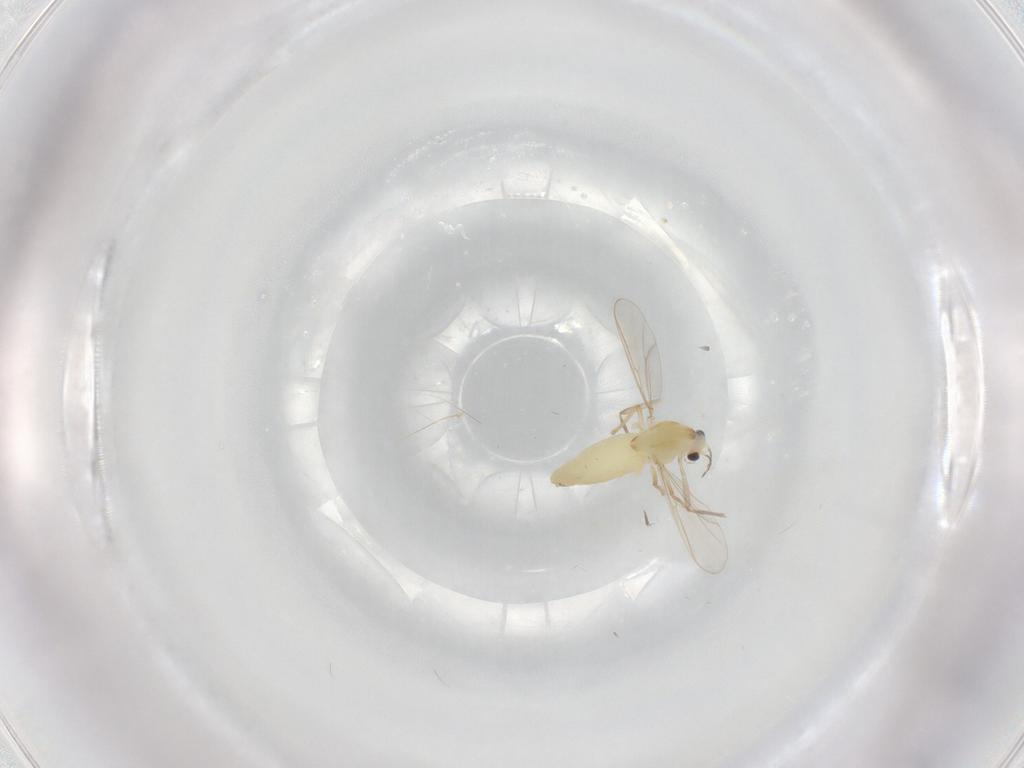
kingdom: Animalia
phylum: Arthropoda
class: Insecta
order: Diptera
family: Chironomidae
